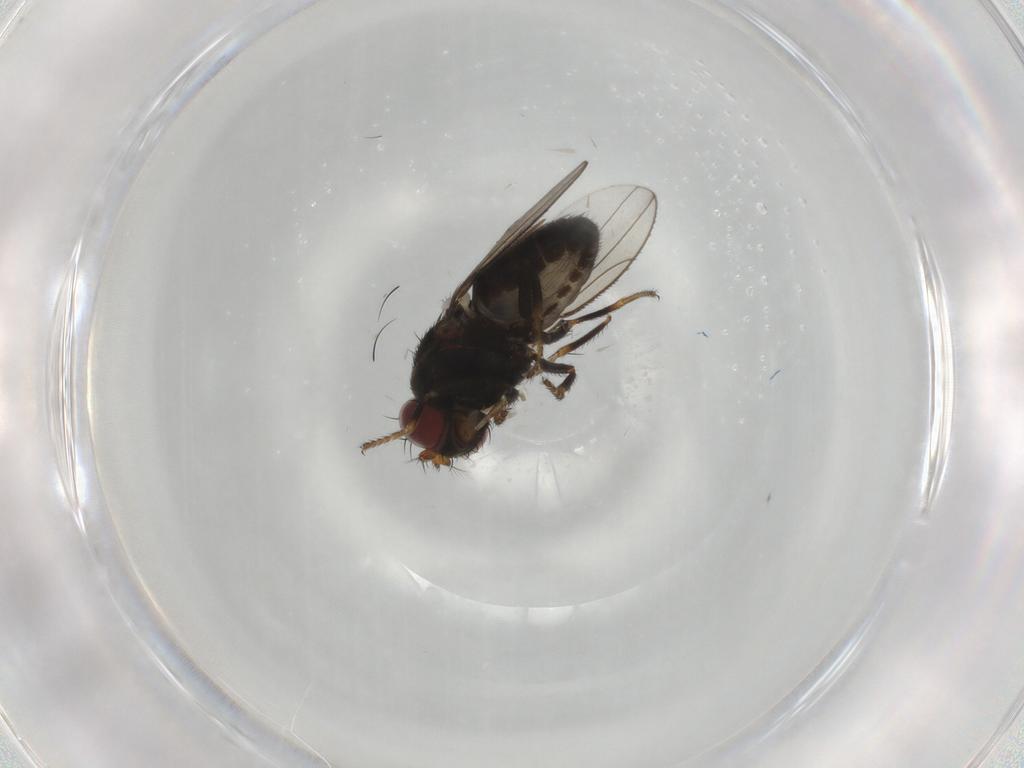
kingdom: Animalia
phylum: Arthropoda
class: Insecta
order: Diptera
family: Ephydridae
